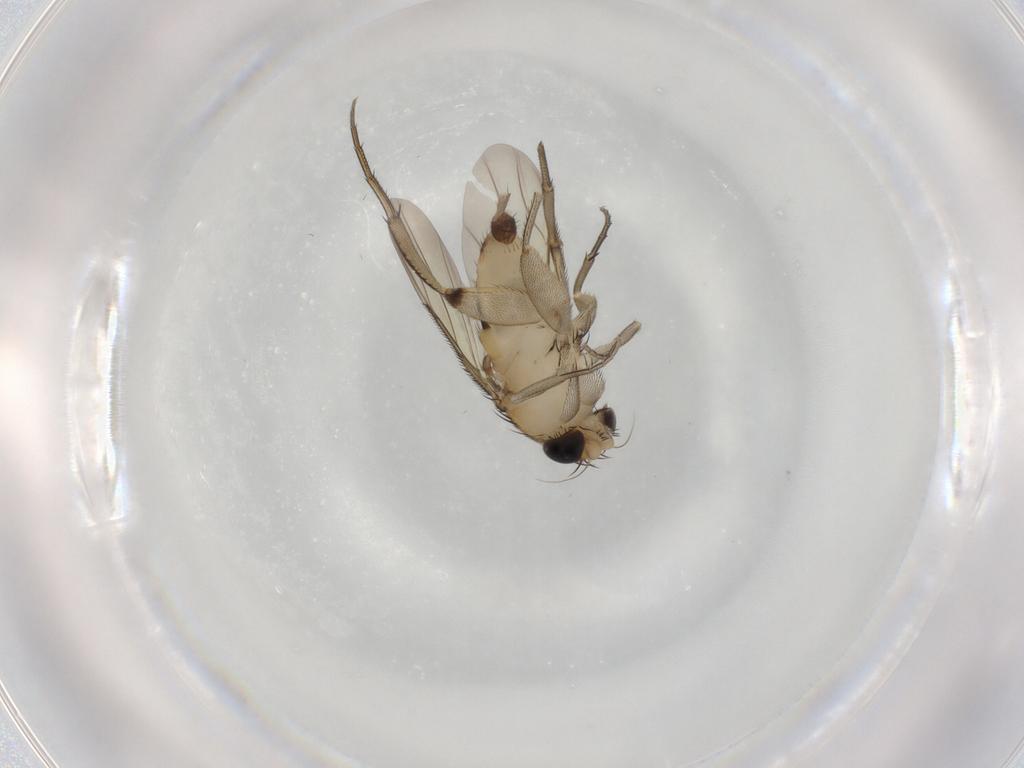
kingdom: Animalia
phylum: Arthropoda
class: Insecta
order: Diptera
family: Phoridae
